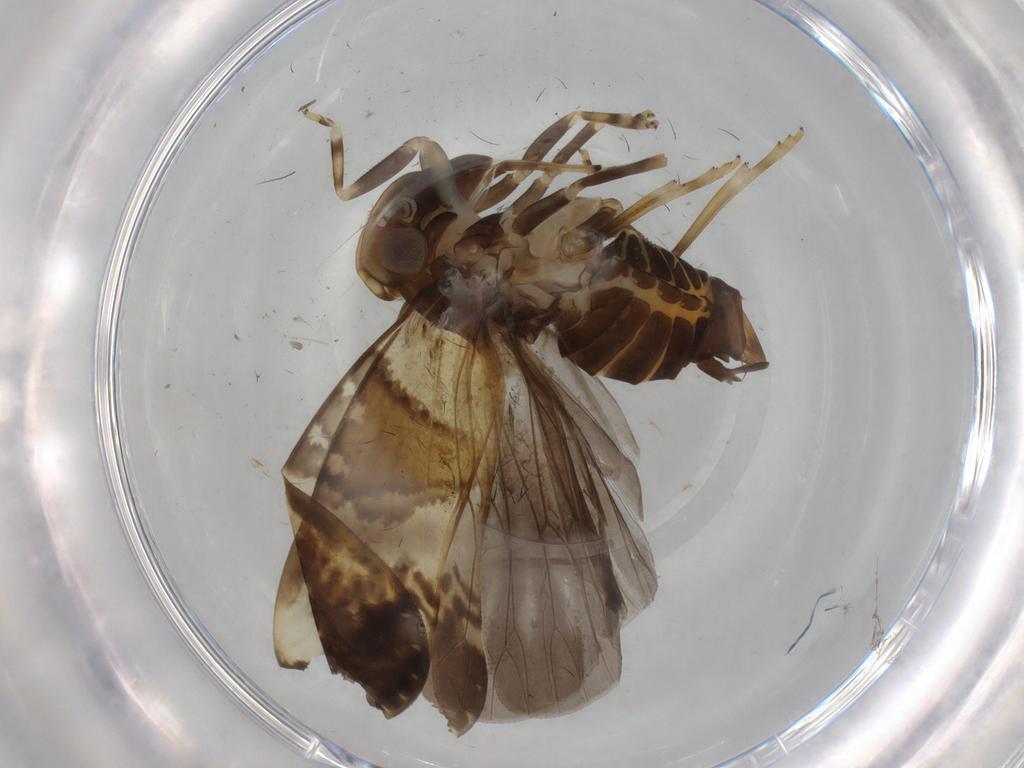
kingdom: Animalia
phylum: Arthropoda
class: Insecta
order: Hemiptera
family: Cixiidae
